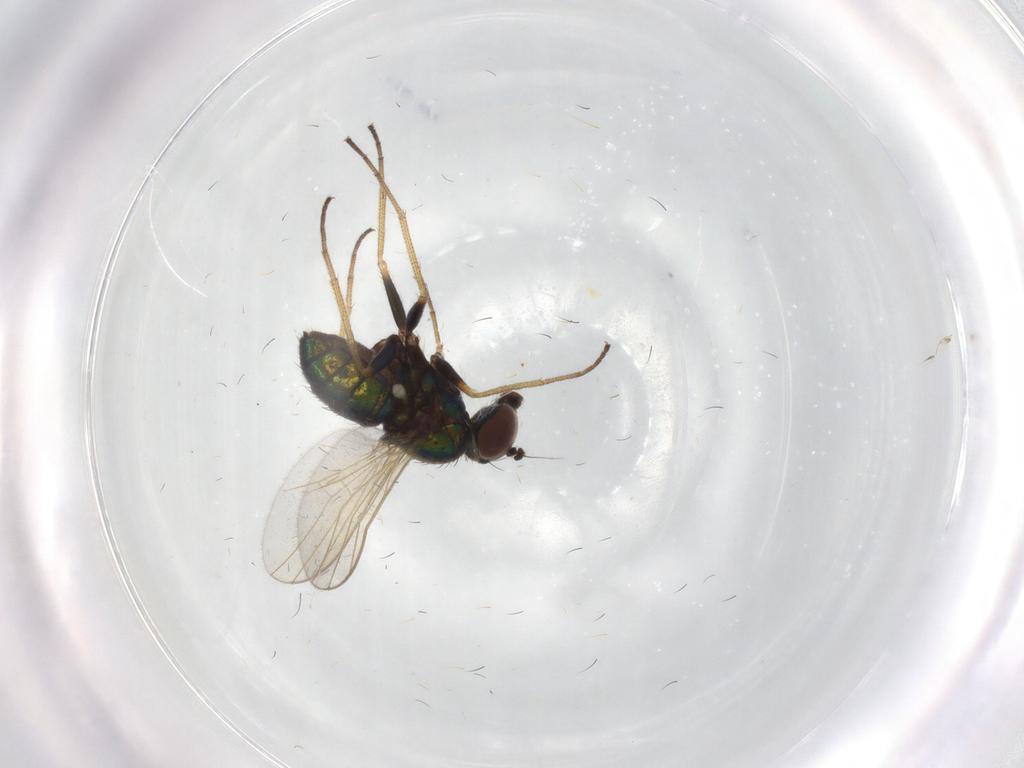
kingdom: Animalia
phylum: Arthropoda
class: Insecta
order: Diptera
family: Dolichopodidae
